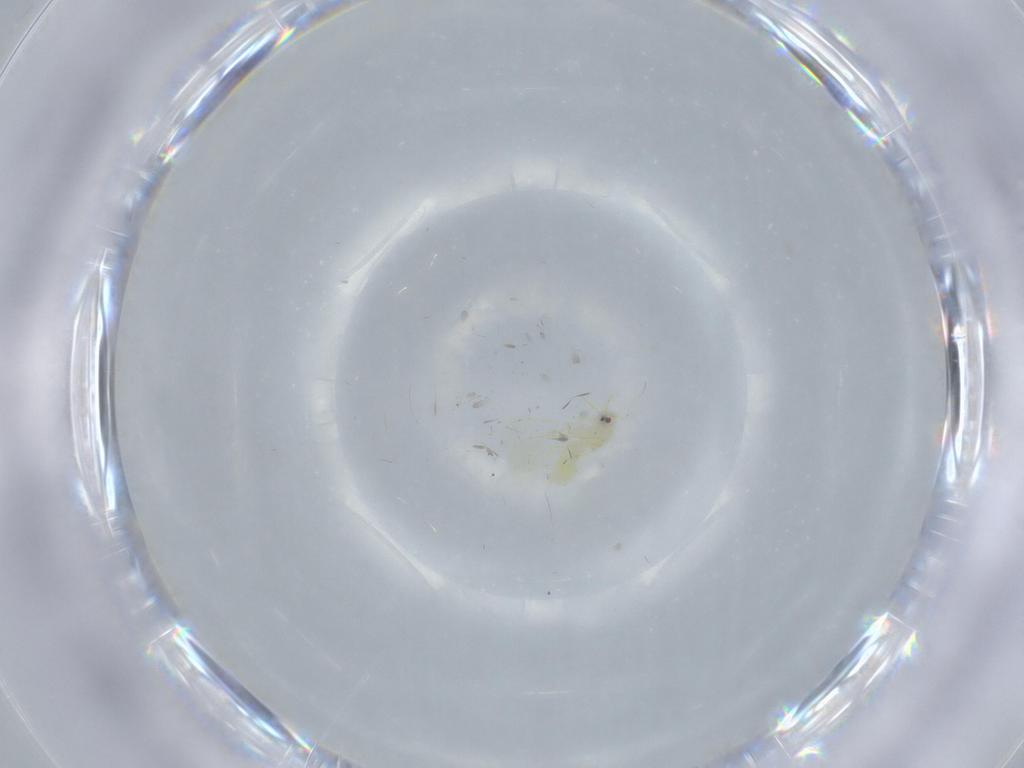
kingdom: Animalia
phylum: Arthropoda
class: Insecta
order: Hemiptera
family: Aleyrodidae
